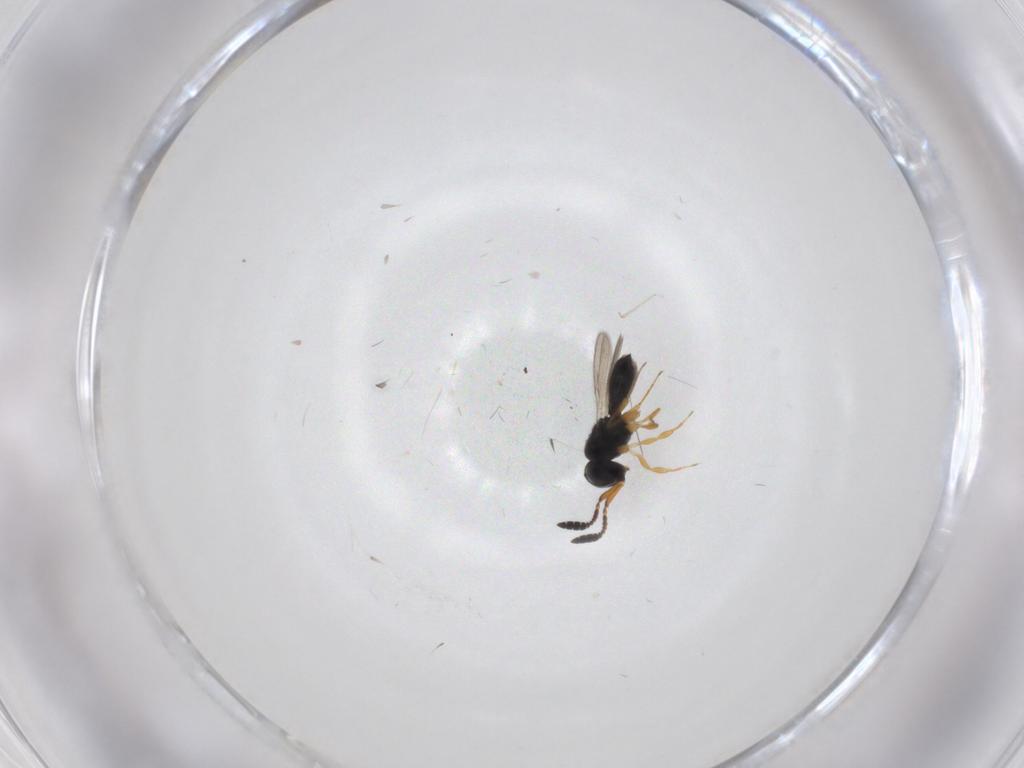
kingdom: Animalia
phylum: Arthropoda
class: Insecta
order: Hymenoptera
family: Scelionidae
